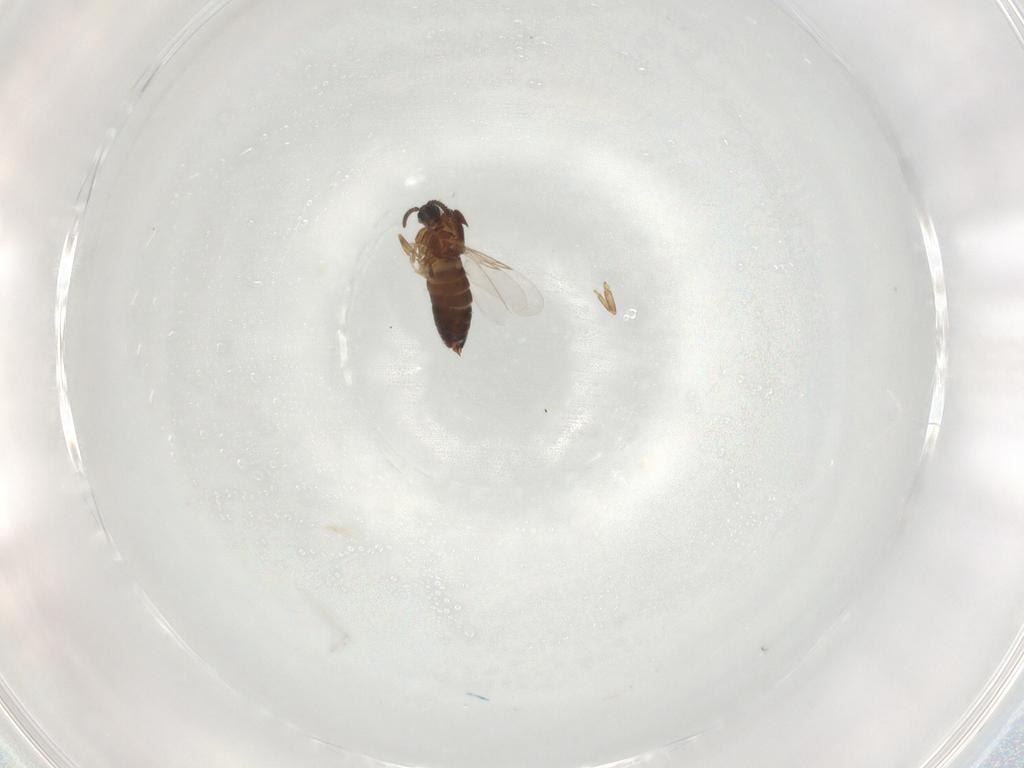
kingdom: Animalia
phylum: Arthropoda
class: Insecta
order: Diptera
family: Scatopsidae
